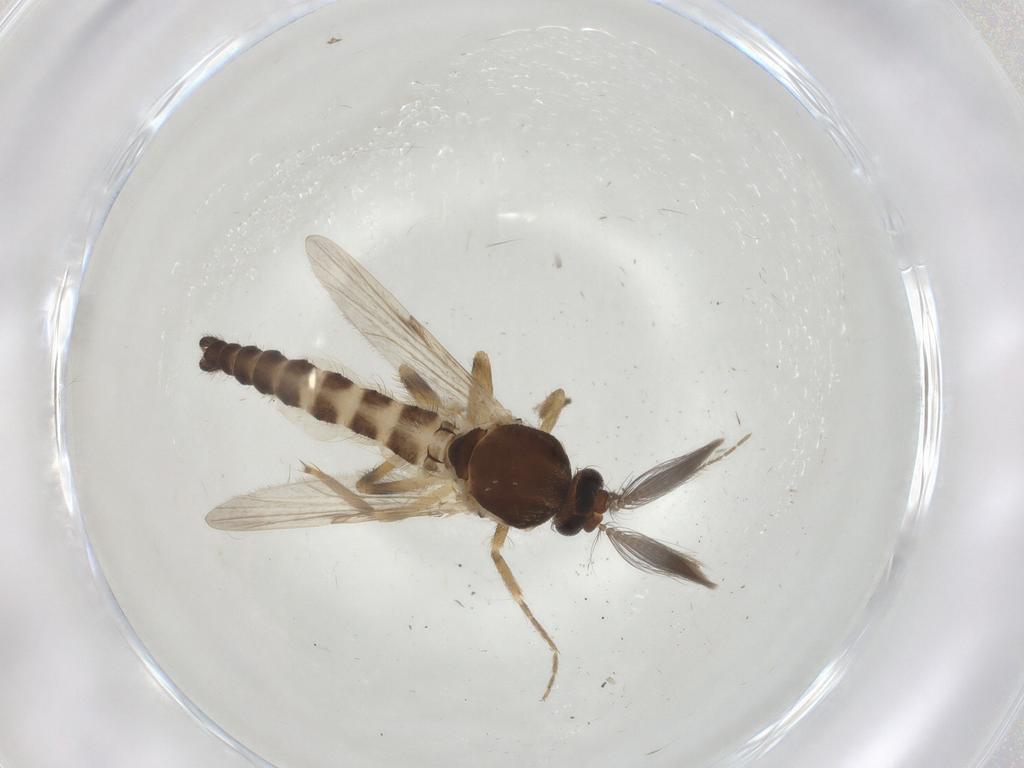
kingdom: Animalia
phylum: Arthropoda
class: Insecta
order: Diptera
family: Ceratopogonidae
